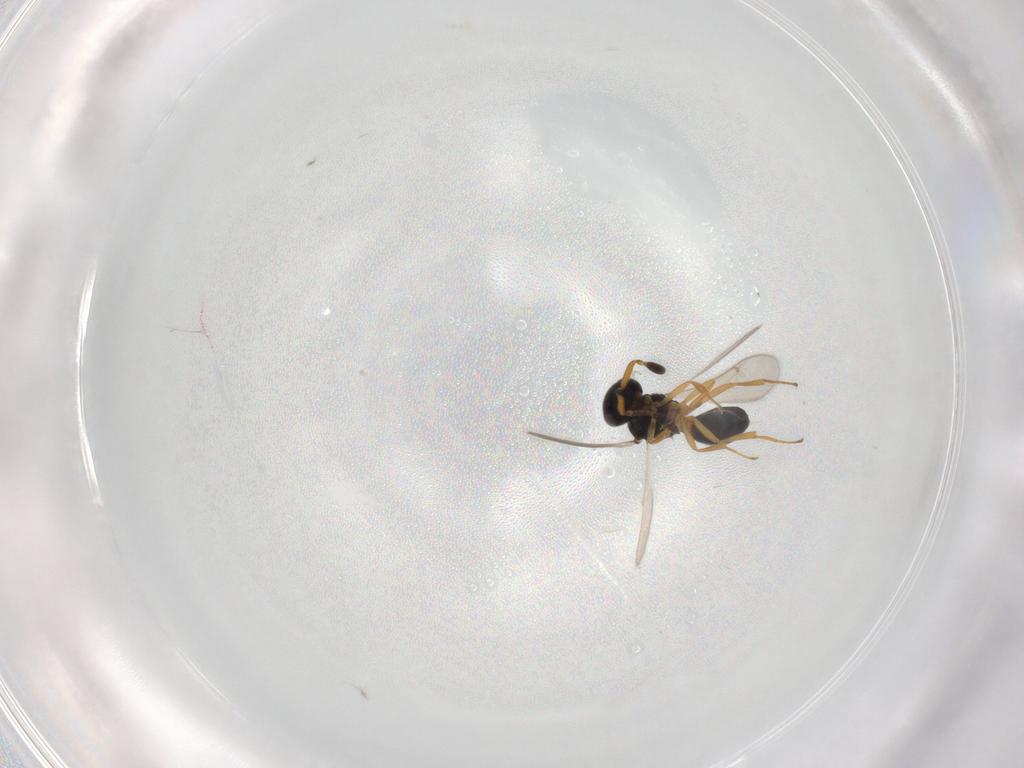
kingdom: Animalia
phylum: Arthropoda
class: Insecta
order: Hymenoptera
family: Scelionidae
